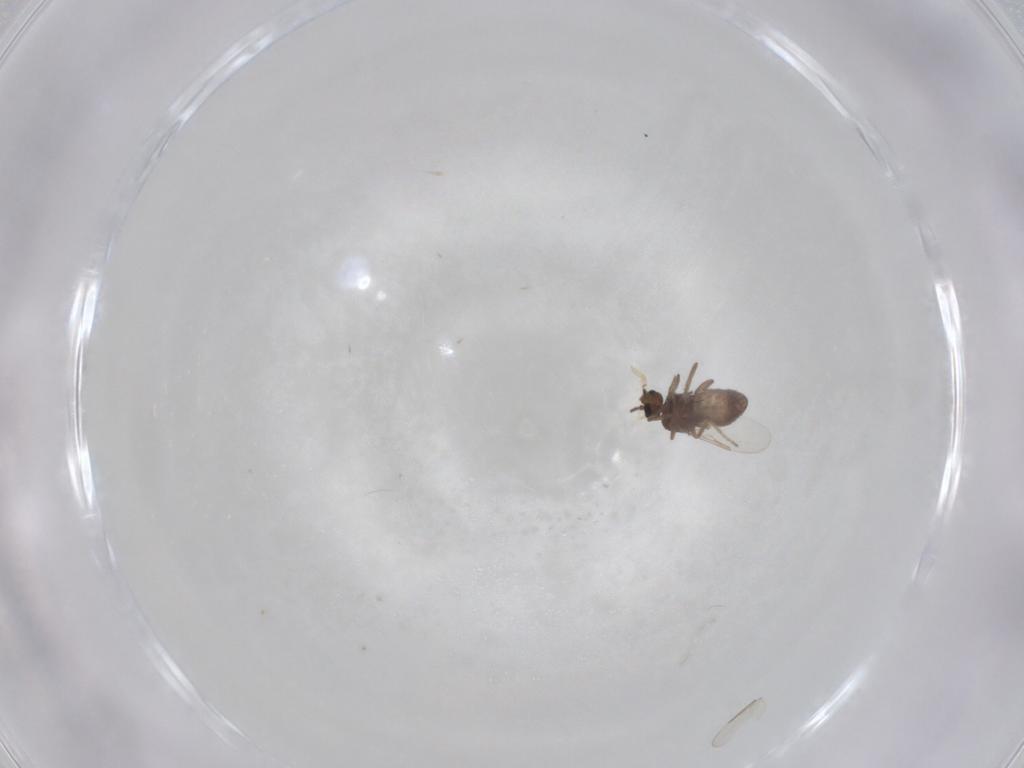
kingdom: Animalia
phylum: Arthropoda
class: Insecta
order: Diptera
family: Ceratopogonidae
